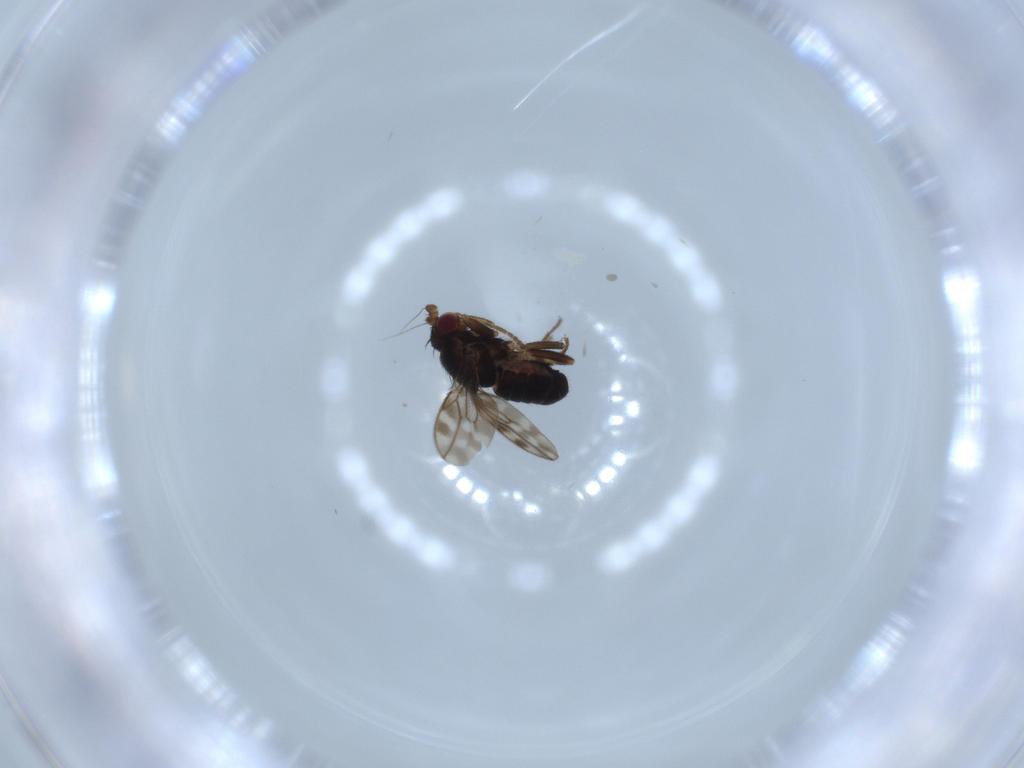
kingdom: Animalia
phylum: Arthropoda
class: Insecta
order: Diptera
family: Sphaeroceridae
